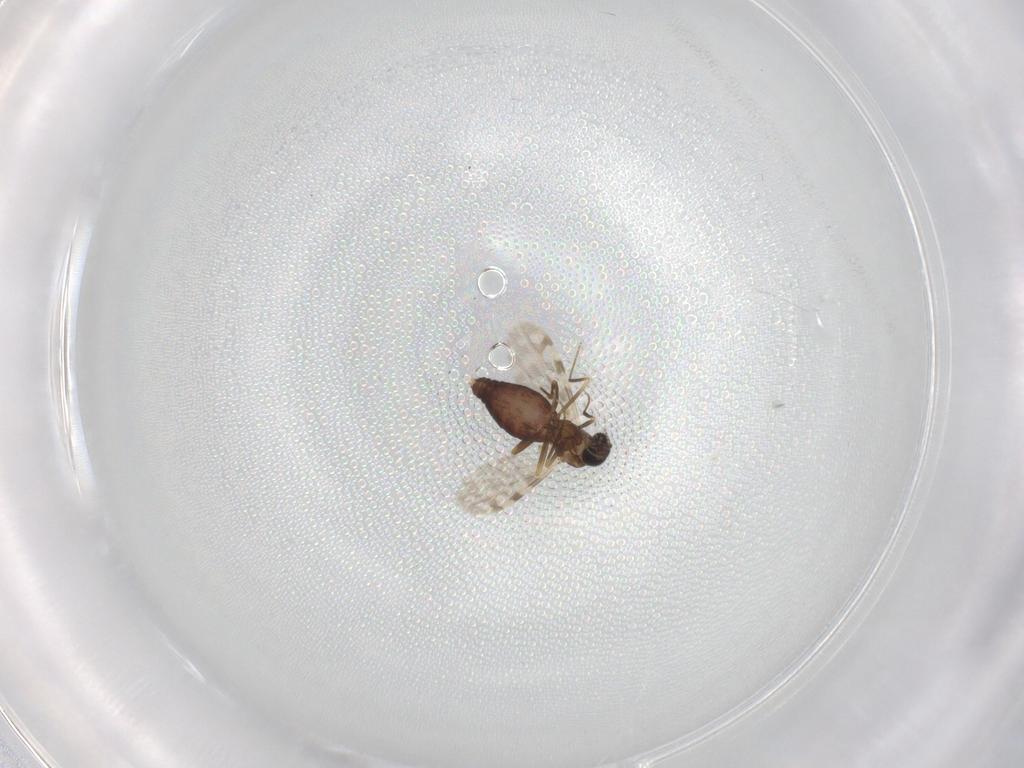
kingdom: Animalia
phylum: Arthropoda
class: Insecta
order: Diptera
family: Ceratopogonidae
